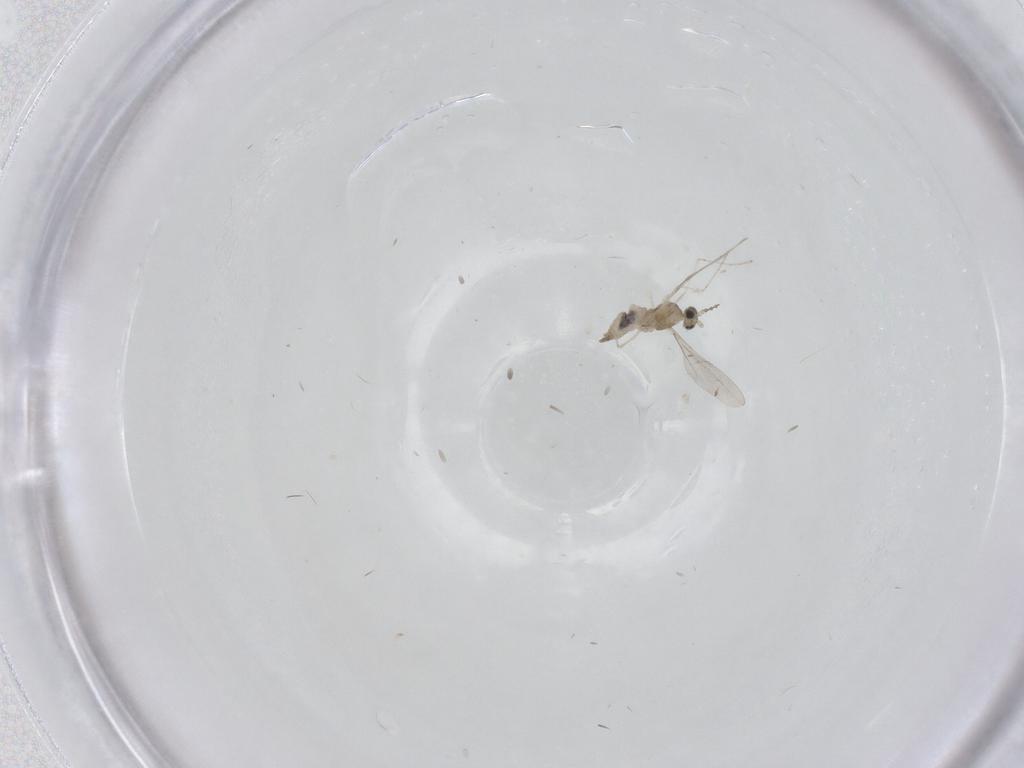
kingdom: Animalia
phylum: Arthropoda
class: Insecta
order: Diptera
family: Cecidomyiidae
